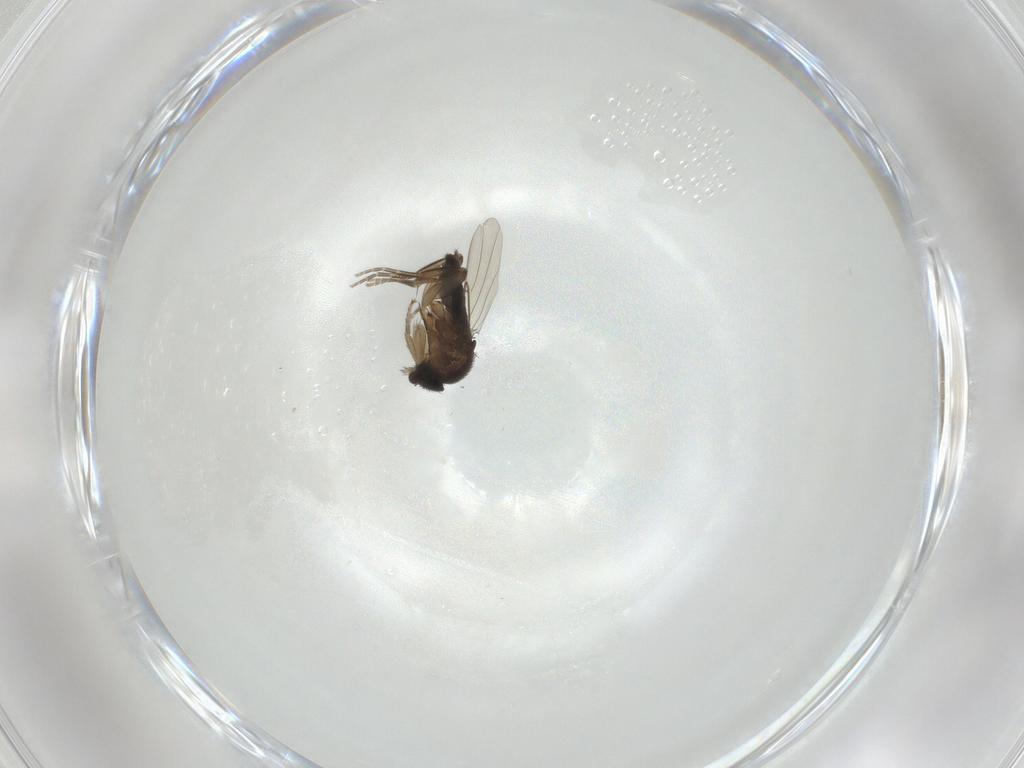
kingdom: Animalia
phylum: Arthropoda
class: Insecta
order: Diptera
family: Phoridae
